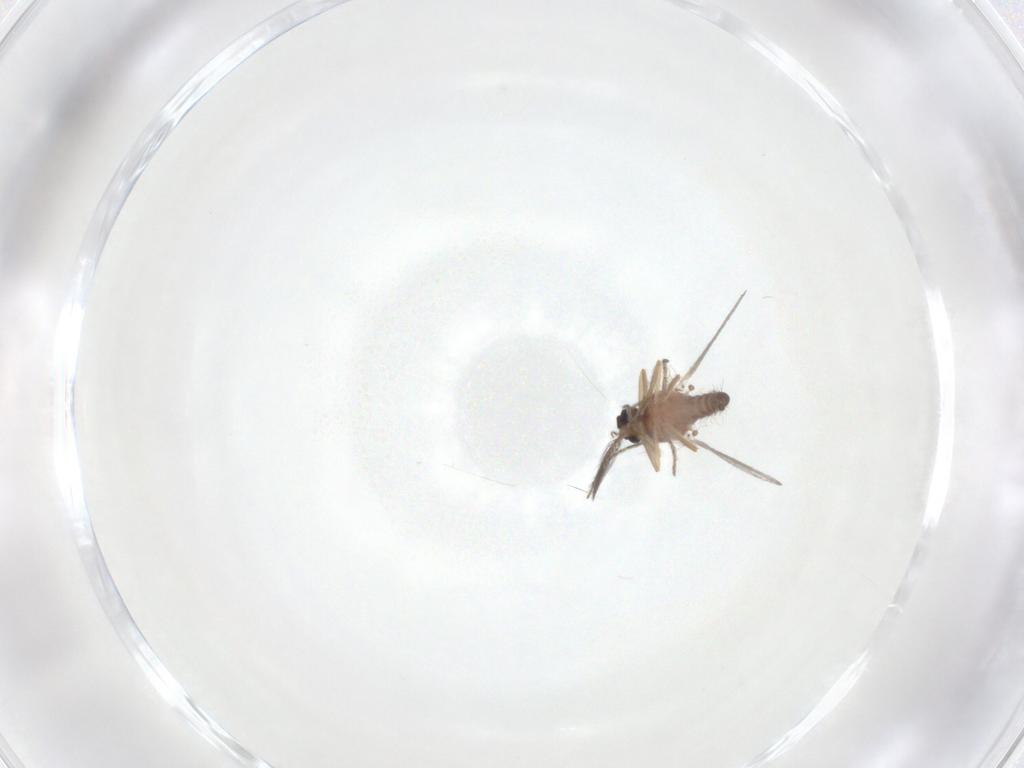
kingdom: Animalia
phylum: Arthropoda
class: Insecta
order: Diptera
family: Ceratopogonidae
